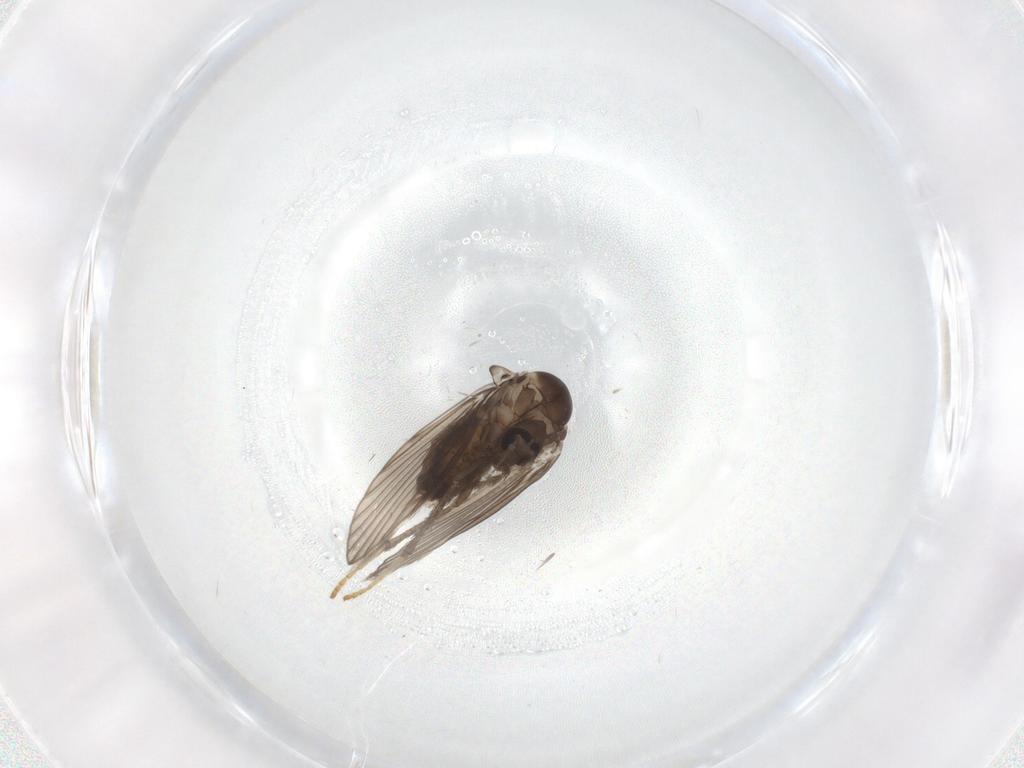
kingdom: Animalia
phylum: Arthropoda
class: Insecta
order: Diptera
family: Psychodidae
